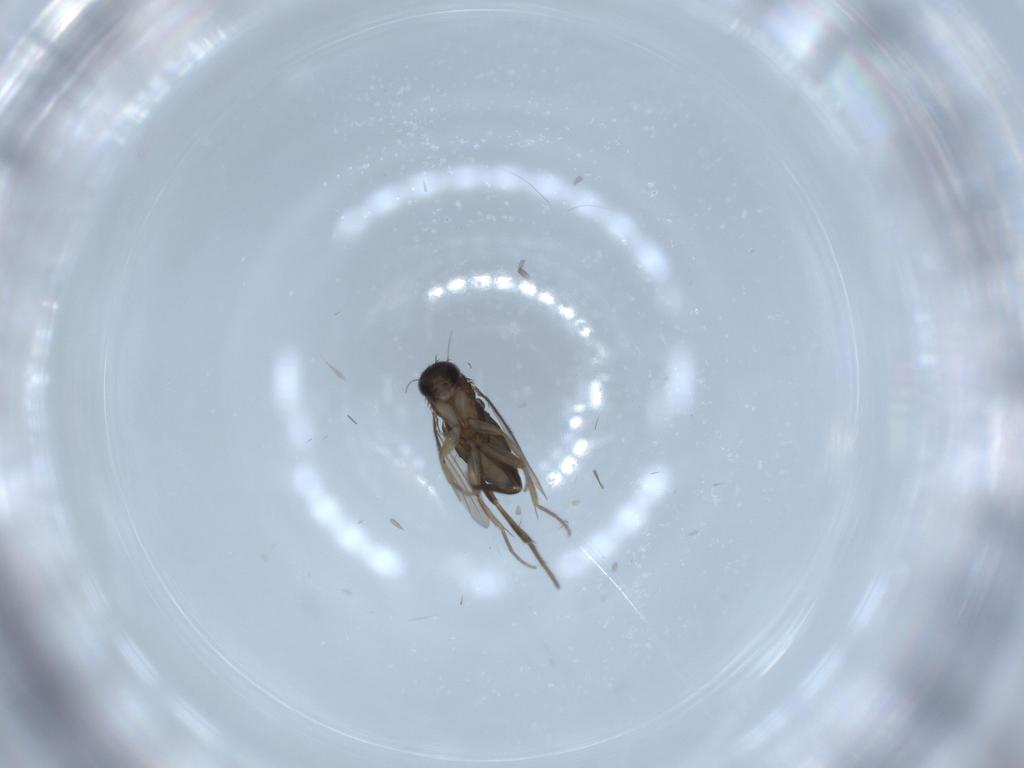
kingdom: Animalia
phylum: Arthropoda
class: Insecta
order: Diptera
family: Phoridae
